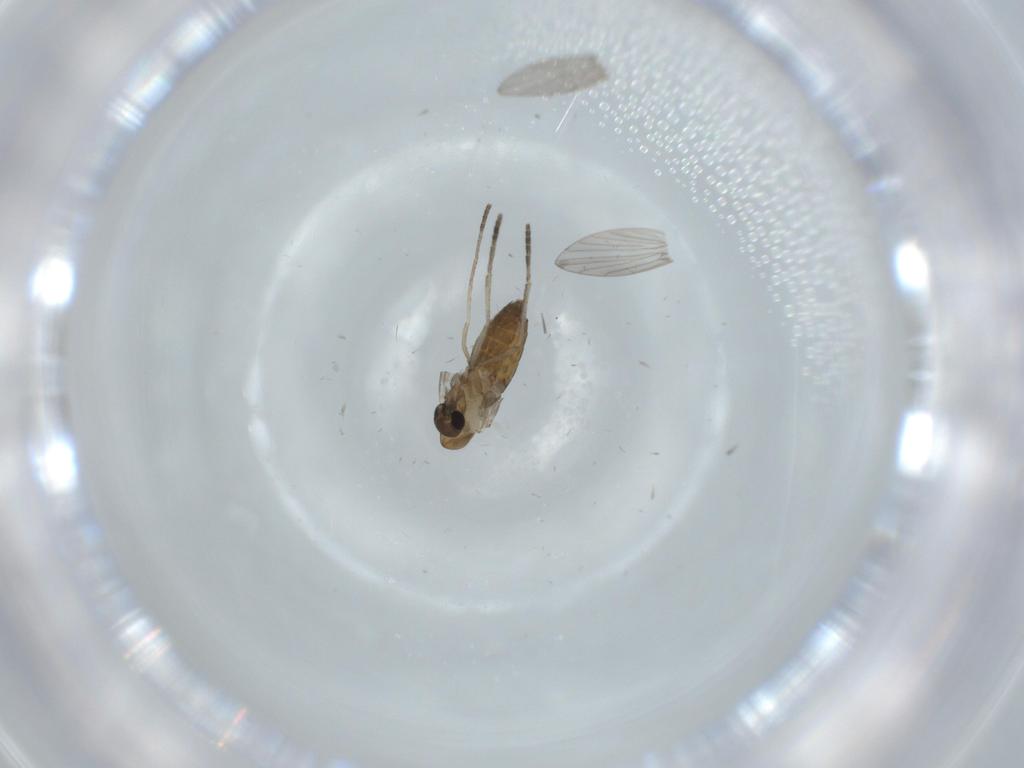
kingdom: Animalia
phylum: Arthropoda
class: Insecta
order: Diptera
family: Psychodidae
